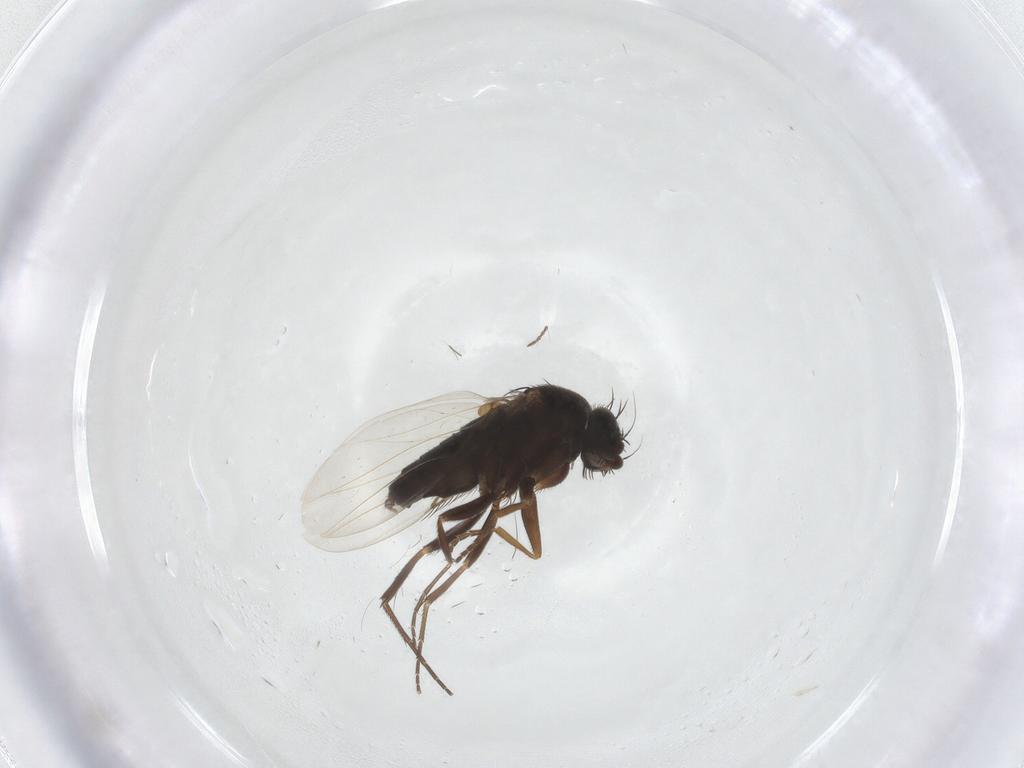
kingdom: Animalia
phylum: Arthropoda
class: Insecta
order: Diptera
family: Phoridae
